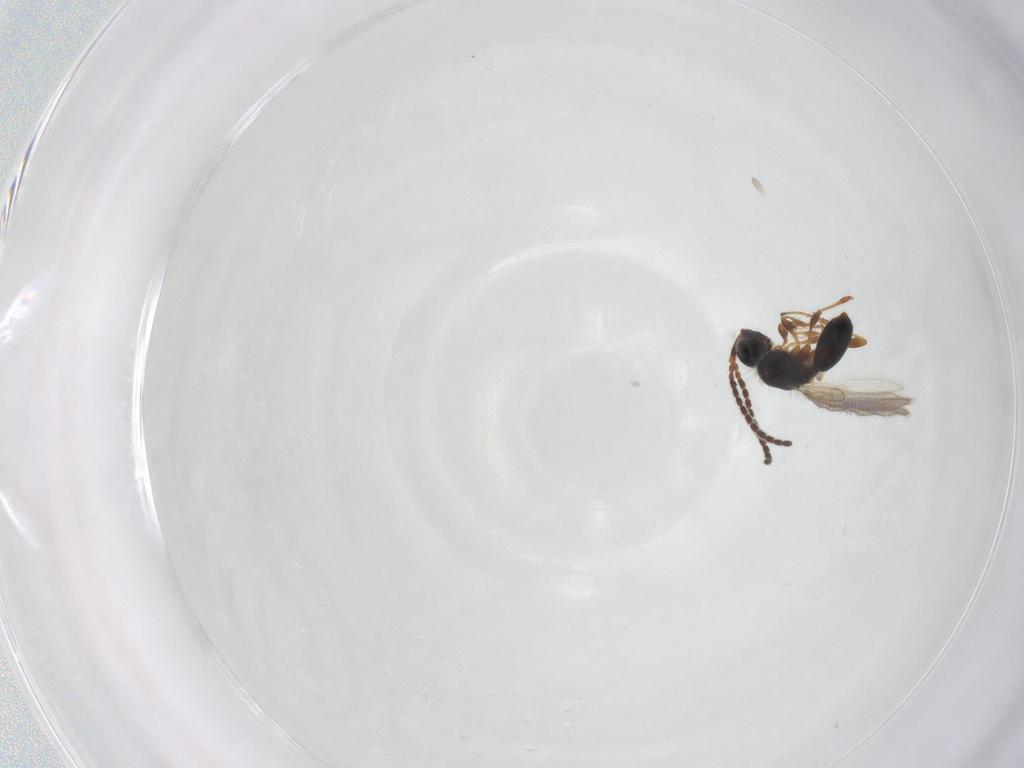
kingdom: Animalia
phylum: Arthropoda
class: Insecta
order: Hymenoptera
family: Diapriidae
